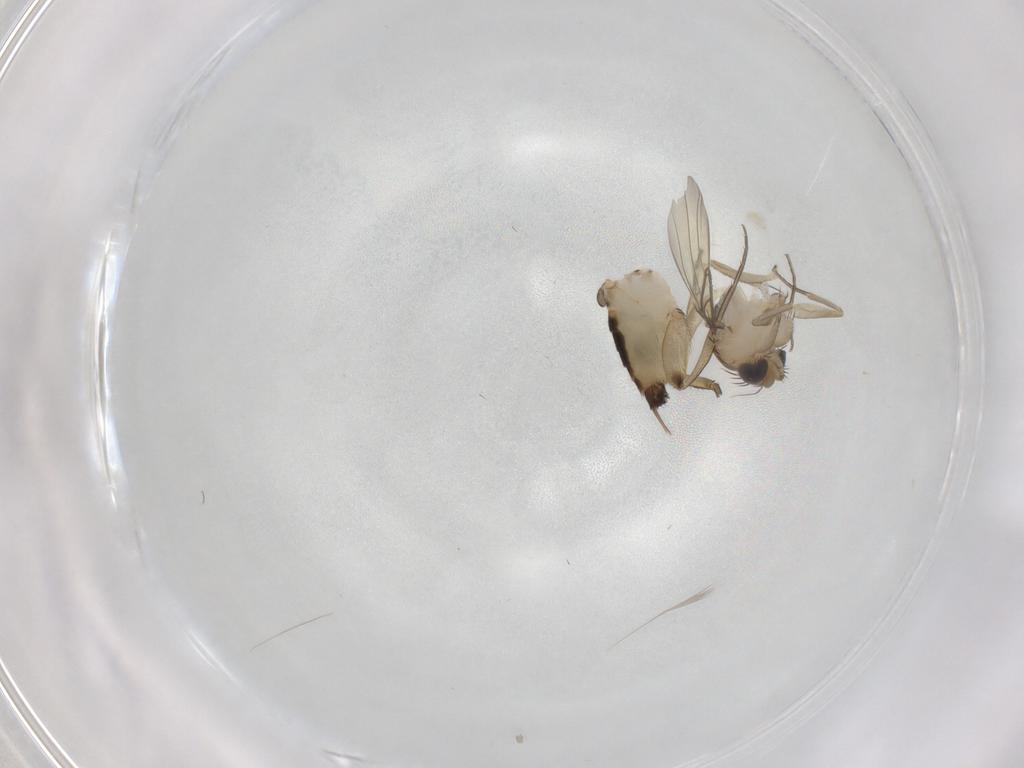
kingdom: Animalia
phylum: Arthropoda
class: Insecta
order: Diptera
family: Phoridae
